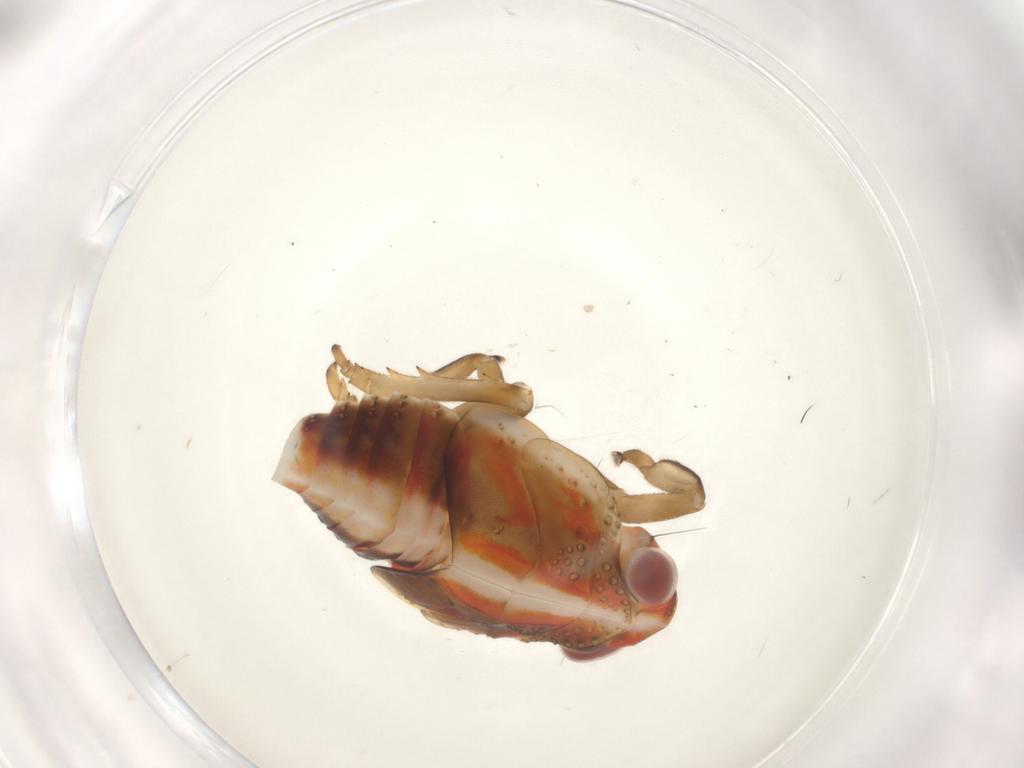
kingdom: Animalia
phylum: Arthropoda
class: Insecta
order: Hemiptera
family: Issidae
